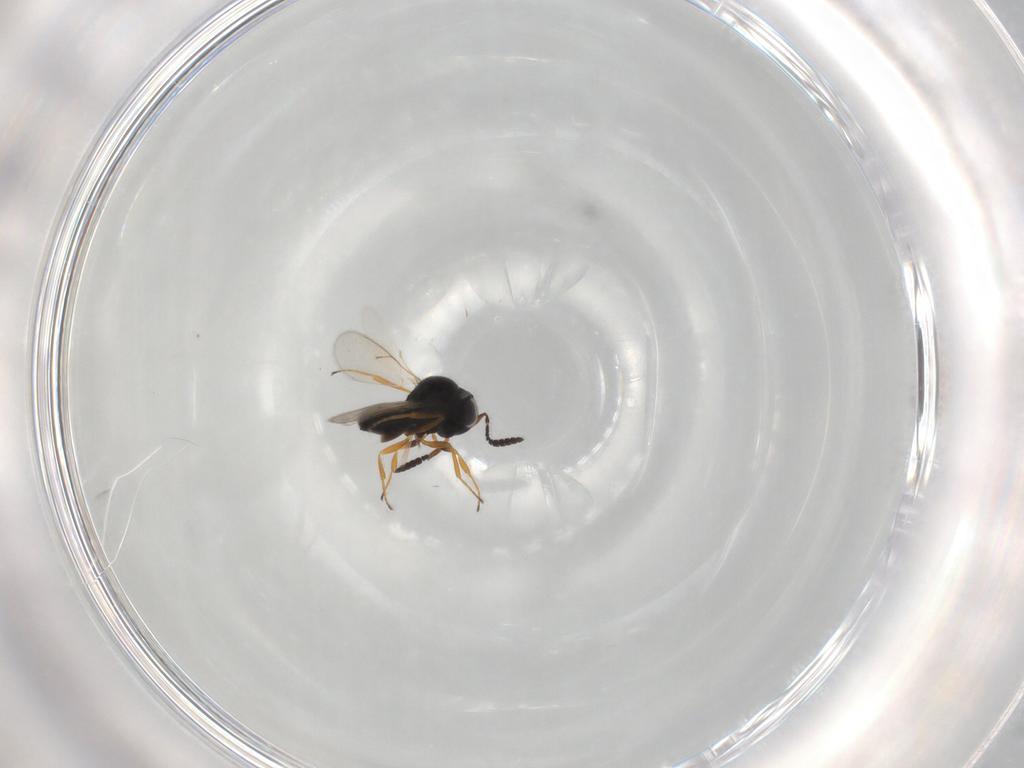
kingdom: Animalia
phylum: Arthropoda
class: Insecta
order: Hymenoptera
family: Scelionidae
